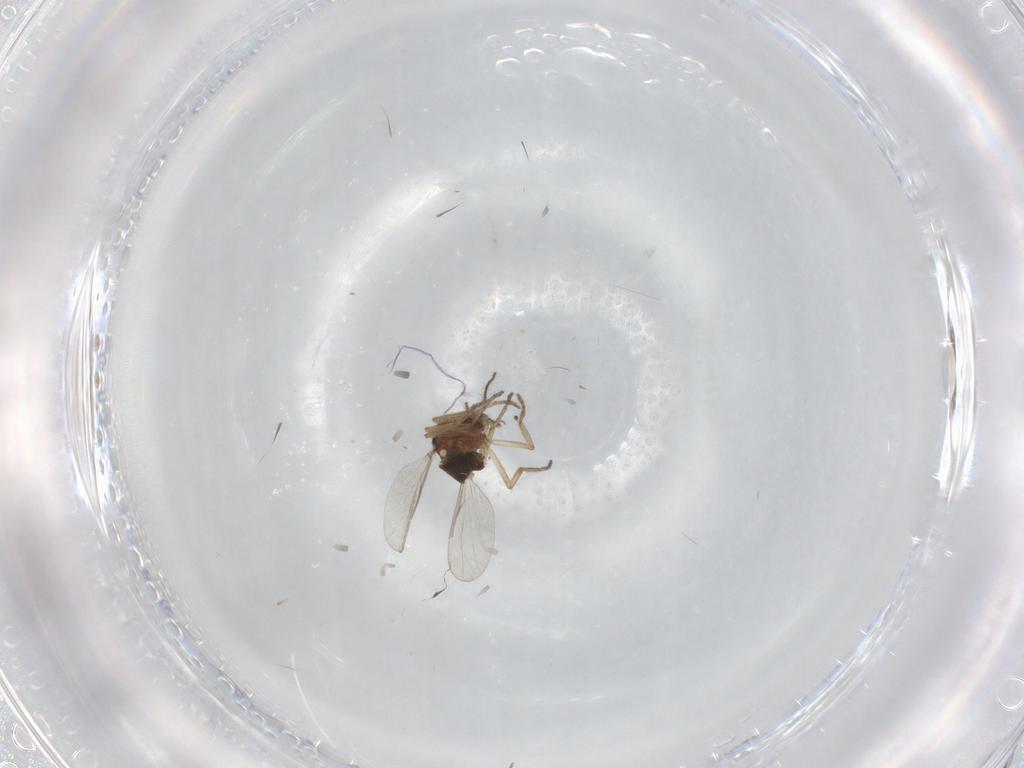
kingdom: Animalia
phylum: Arthropoda
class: Insecta
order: Diptera
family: Ceratopogonidae
